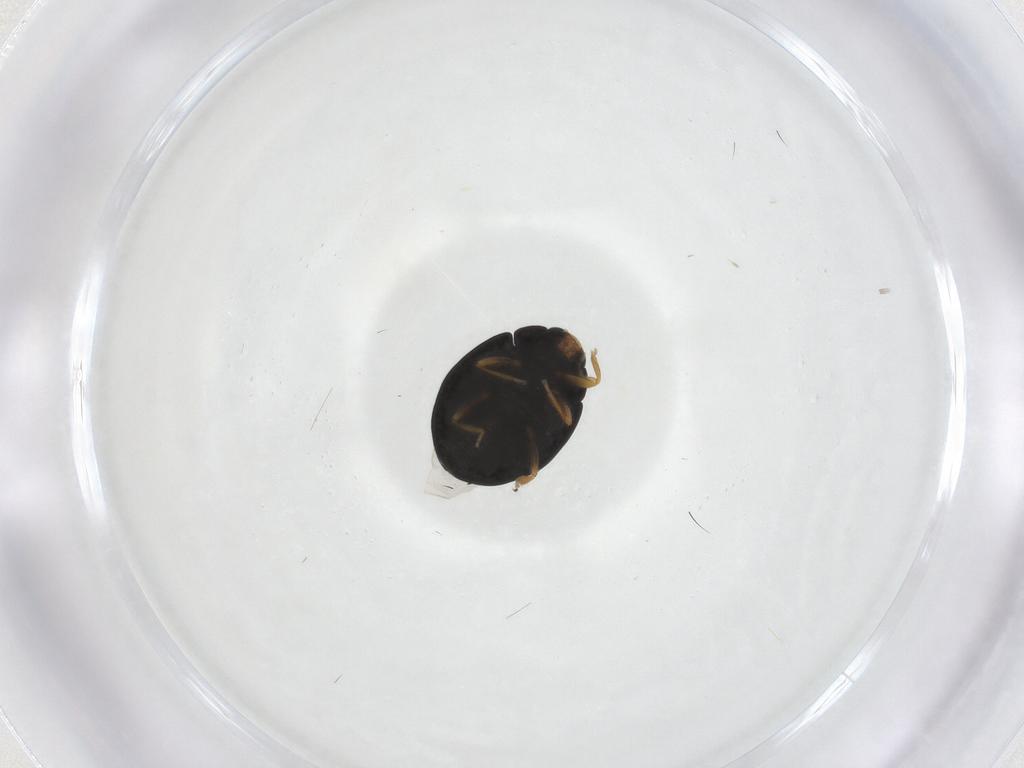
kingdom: Animalia
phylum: Arthropoda
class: Insecta
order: Coleoptera
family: Coccinellidae
